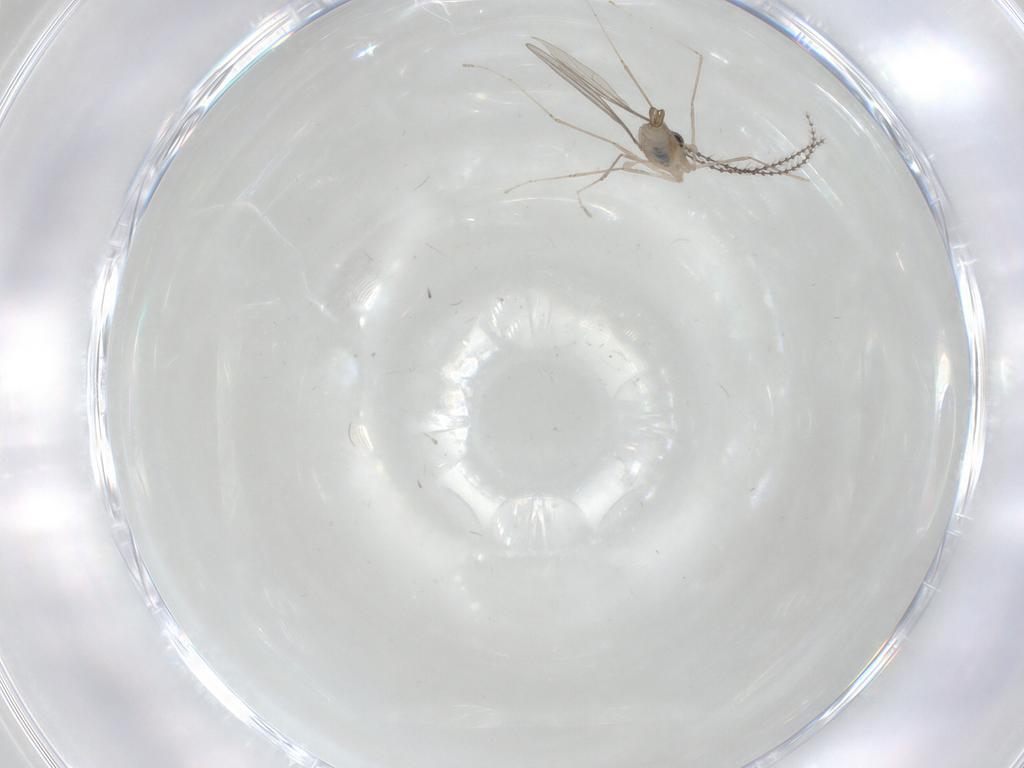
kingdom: Animalia
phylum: Arthropoda
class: Insecta
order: Diptera
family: Cecidomyiidae
